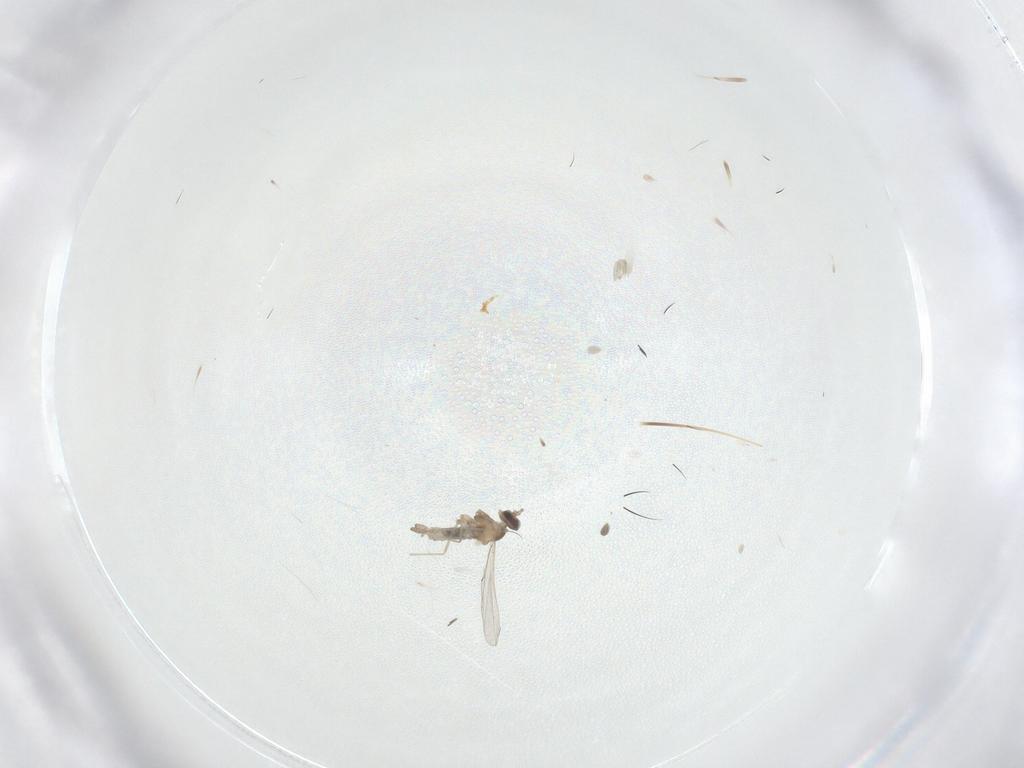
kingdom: Animalia
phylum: Arthropoda
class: Insecta
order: Diptera
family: Cecidomyiidae
